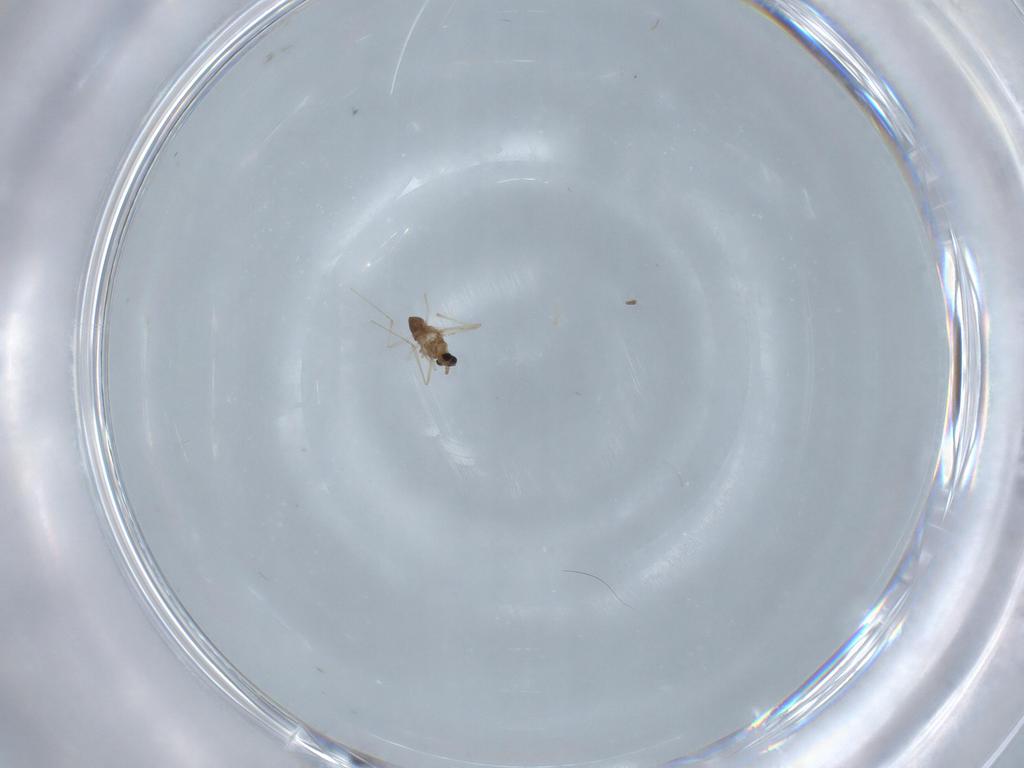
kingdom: Animalia
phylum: Arthropoda
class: Insecta
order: Diptera
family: Cecidomyiidae
